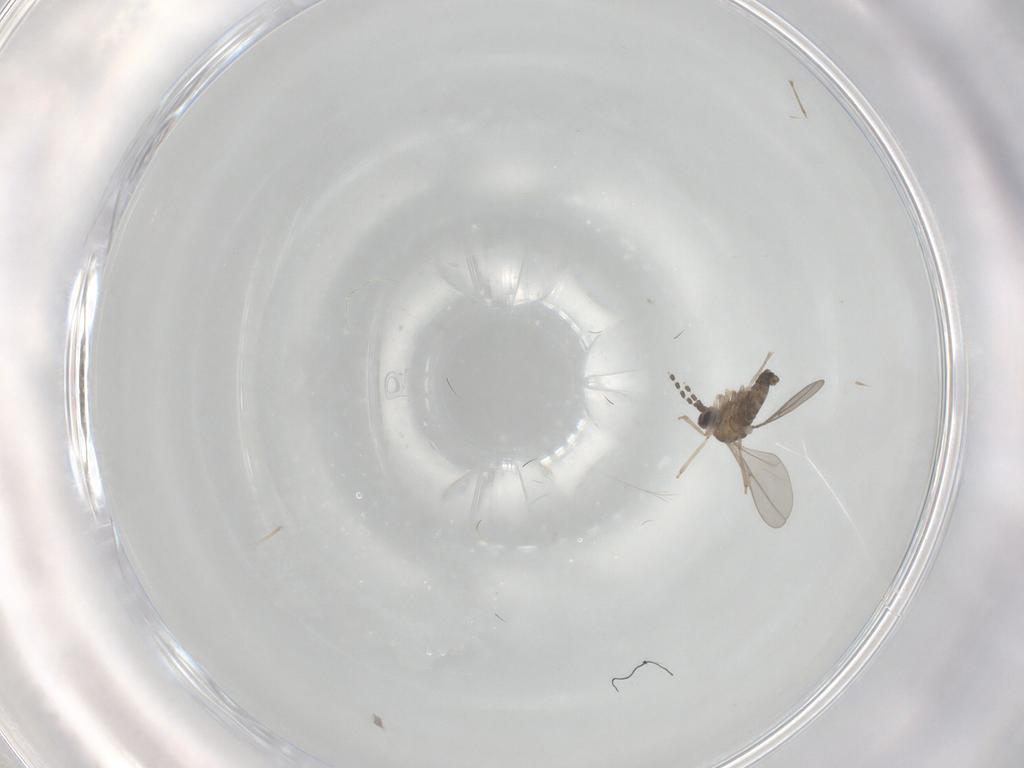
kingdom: Animalia
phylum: Arthropoda
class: Insecta
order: Diptera
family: Cecidomyiidae
